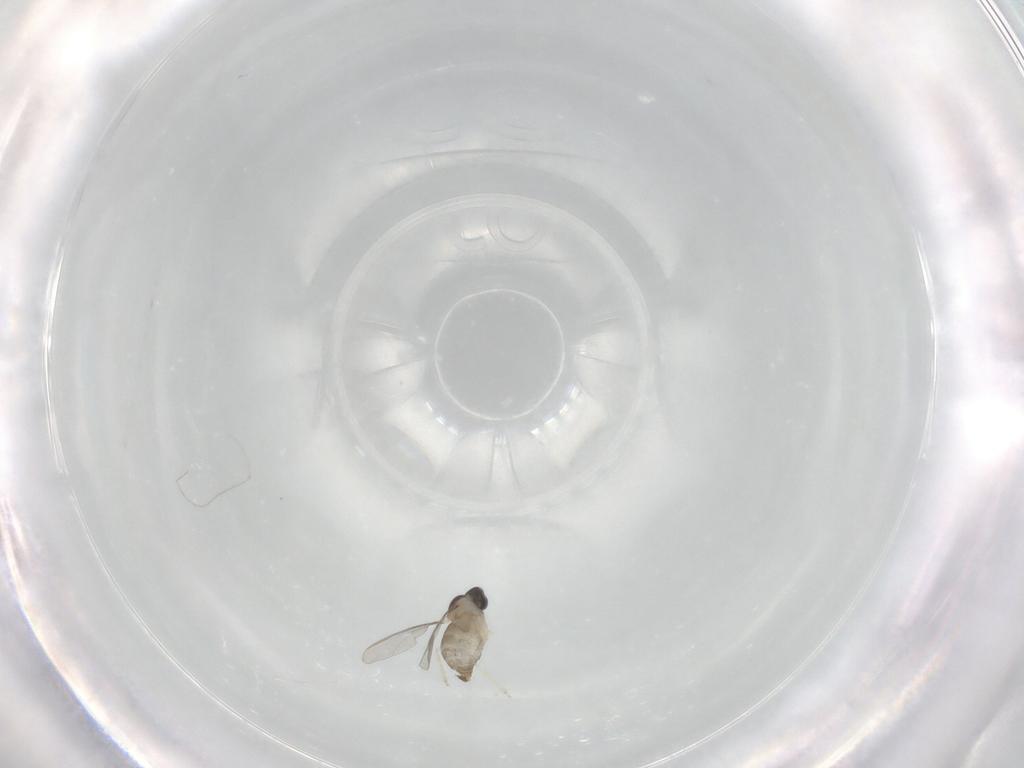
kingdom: Animalia
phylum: Arthropoda
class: Insecta
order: Diptera
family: Cecidomyiidae
